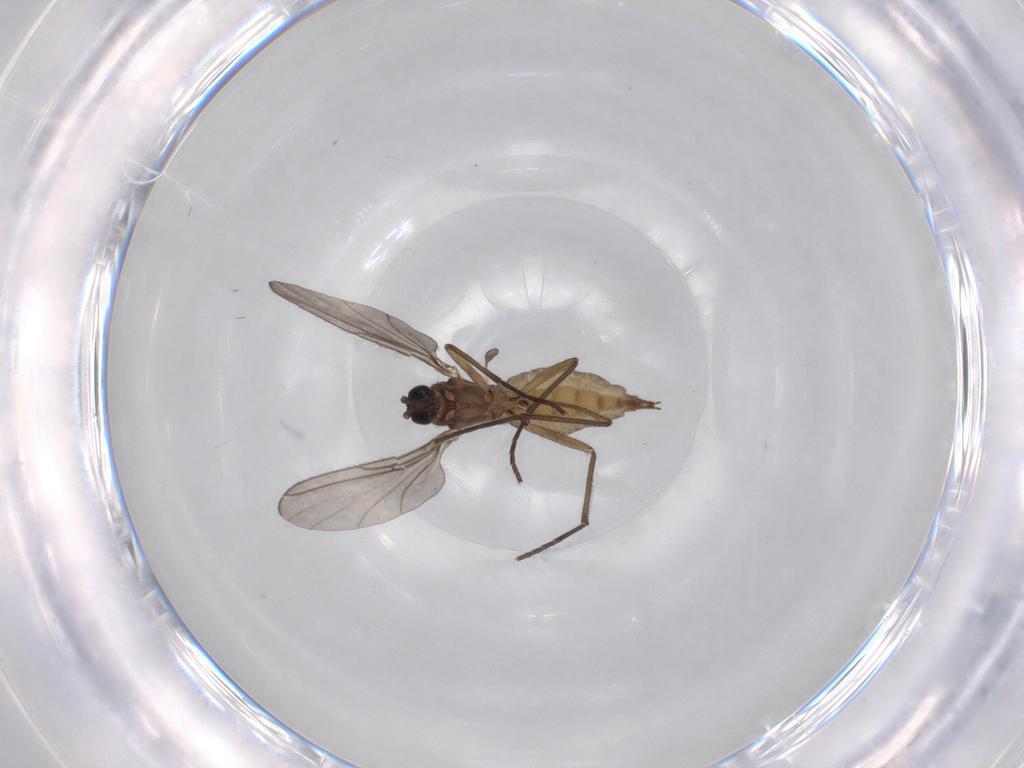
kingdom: Animalia
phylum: Arthropoda
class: Insecta
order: Diptera
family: Sciaridae
